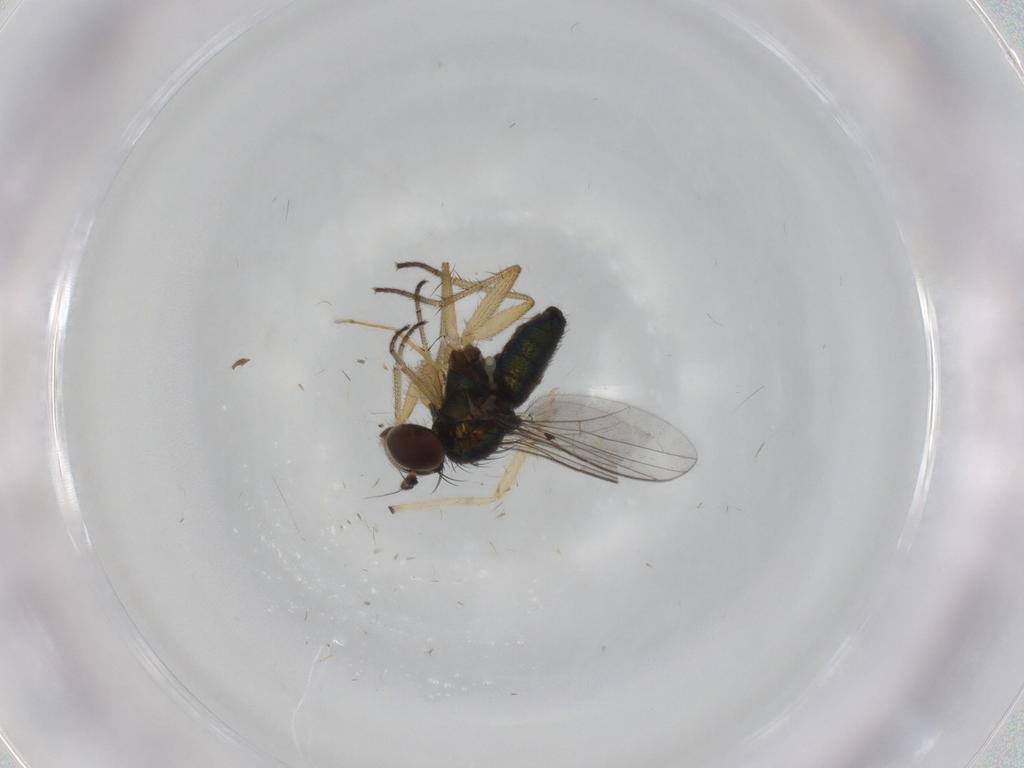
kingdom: Animalia
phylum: Arthropoda
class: Insecta
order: Diptera
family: Chironomidae
